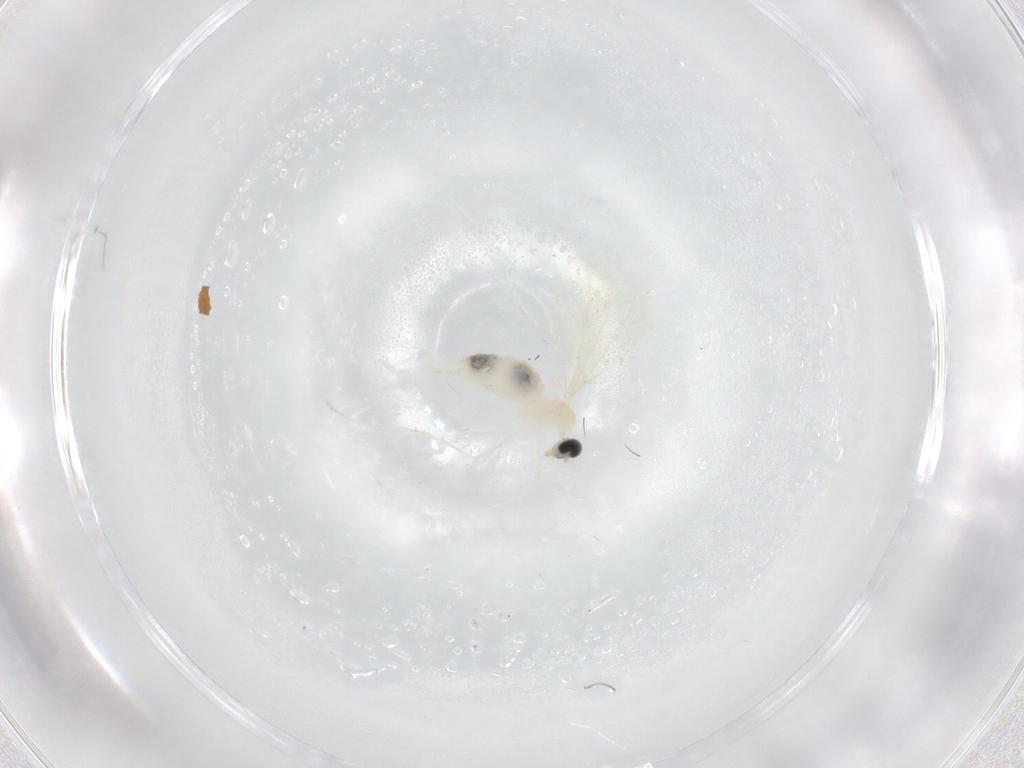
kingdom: Animalia
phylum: Arthropoda
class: Insecta
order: Diptera
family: Cecidomyiidae
